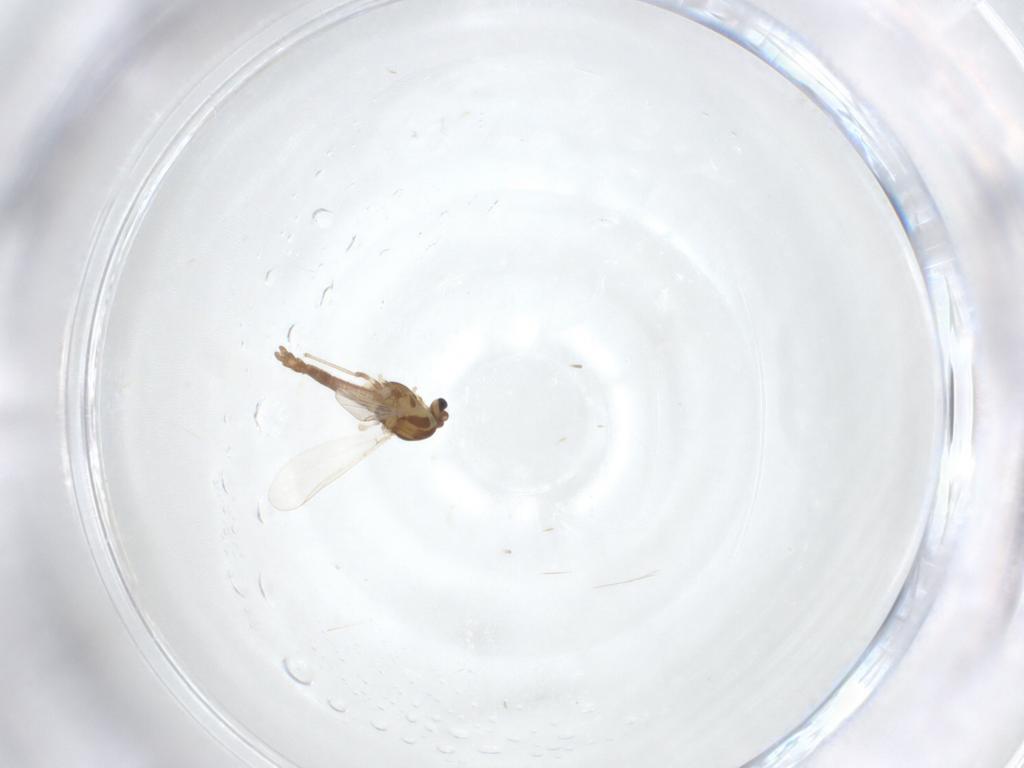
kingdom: Animalia
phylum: Arthropoda
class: Insecta
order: Diptera
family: Chironomidae
